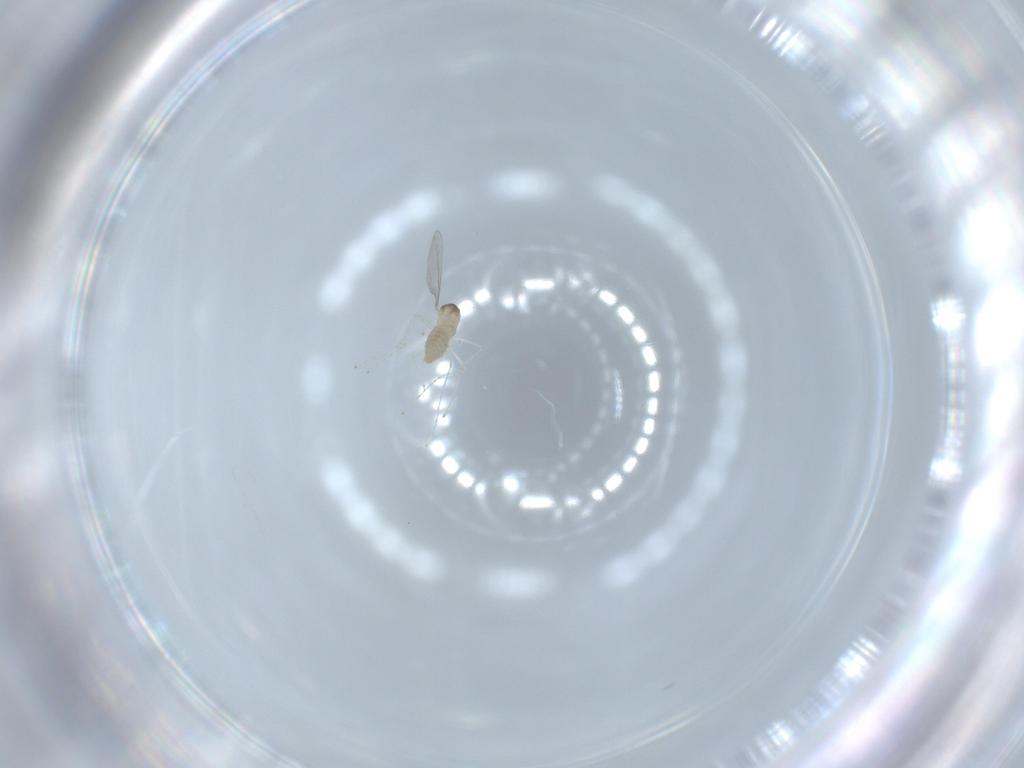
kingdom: Animalia
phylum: Arthropoda
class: Insecta
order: Diptera
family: Cecidomyiidae
